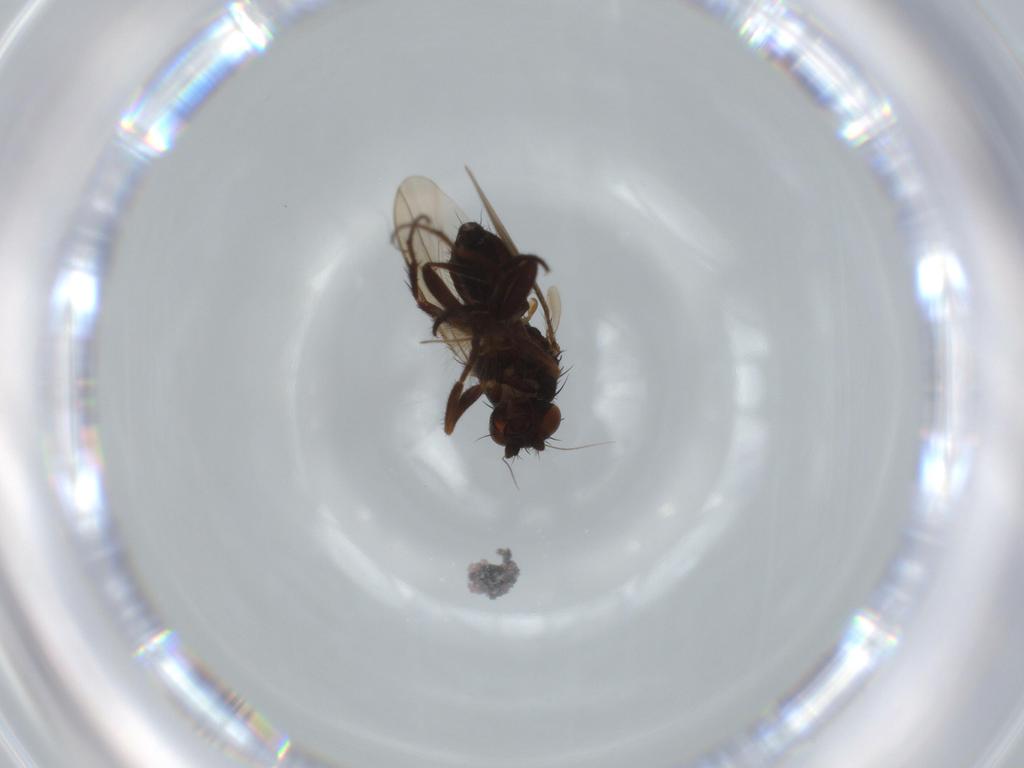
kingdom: Animalia
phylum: Arthropoda
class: Insecta
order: Diptera
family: Sphaeroceridae
